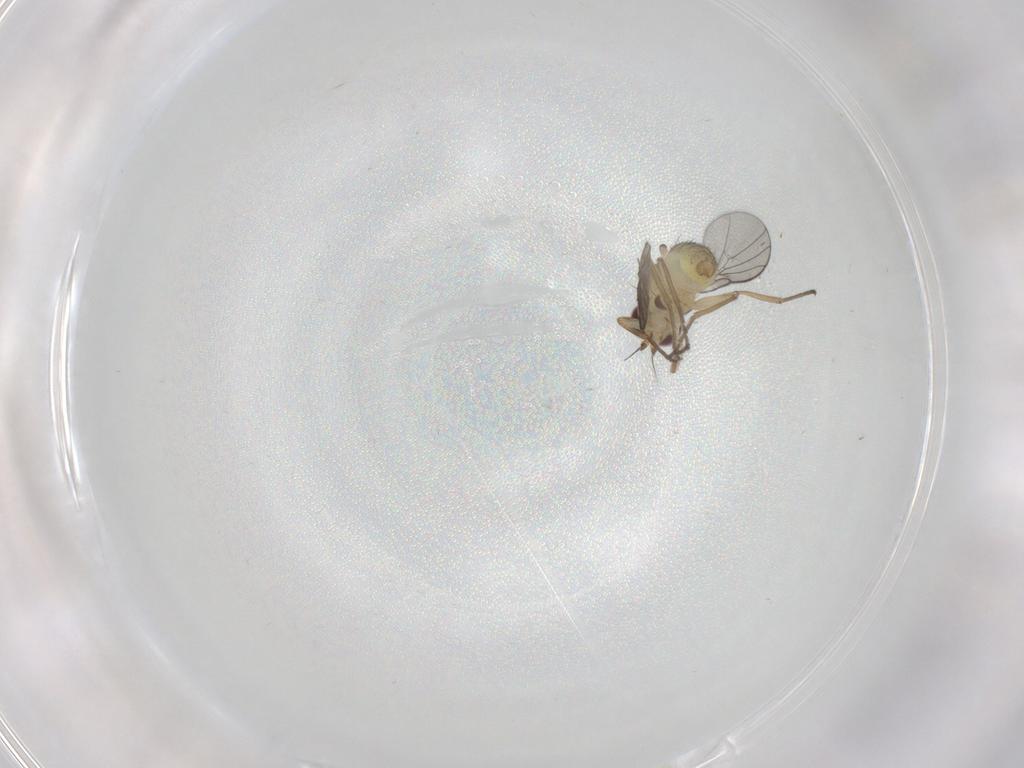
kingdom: Animalia
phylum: Arthropoda
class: Insecta
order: Diptera
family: Agromyzidae
